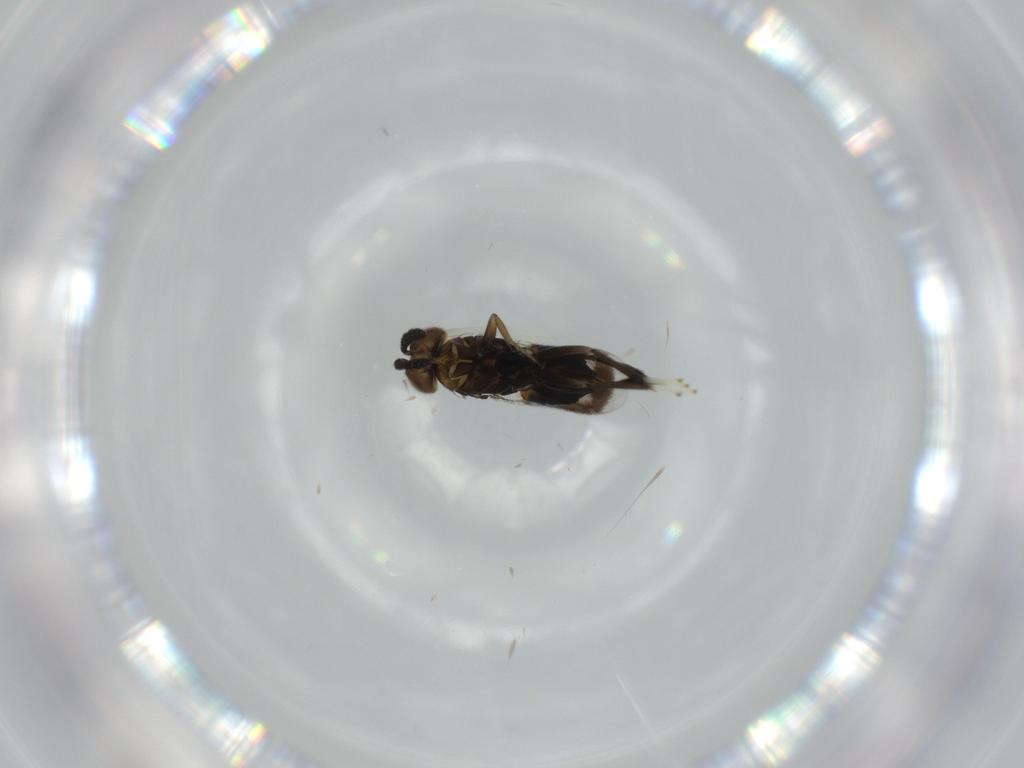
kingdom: Animalia
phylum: Arthropoda
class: Insecta
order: Hymenoptera
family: Aphelinidae
